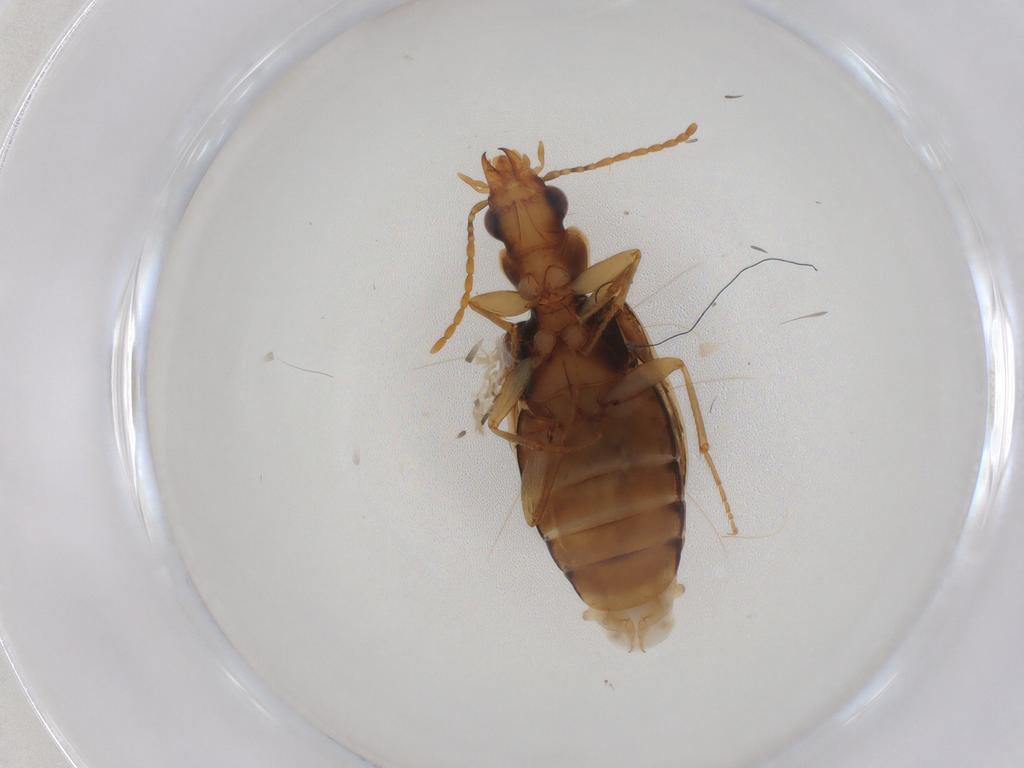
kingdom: Animalia
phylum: Arthropoda
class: Insecta
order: Coleoptera
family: Carabidae
